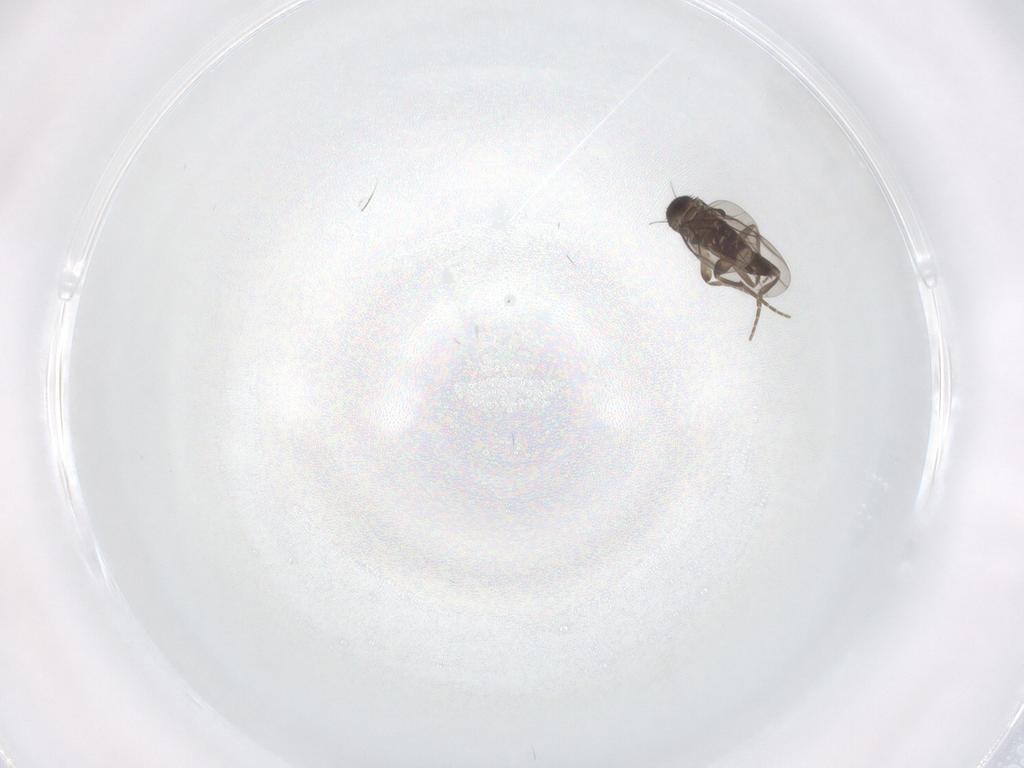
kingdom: Animalia
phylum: Arthropoda
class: Insecta
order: Diptera
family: Phoridae
